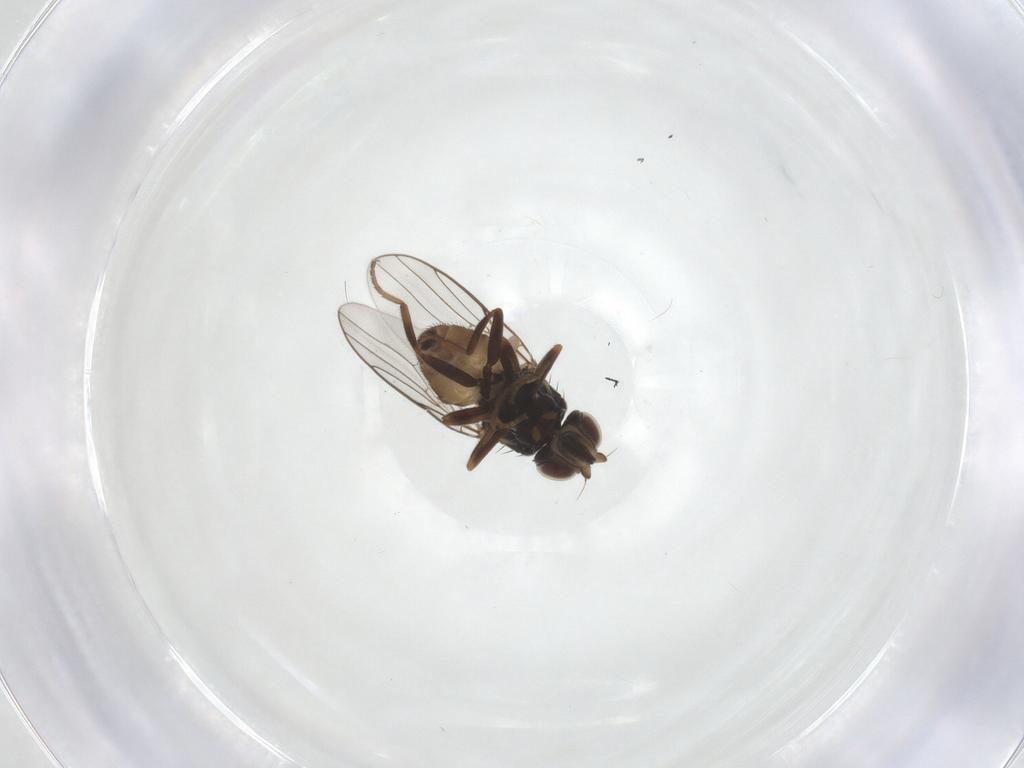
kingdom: Animalia
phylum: Arthropoda
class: Insecta
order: Diptera
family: Chloropidae
